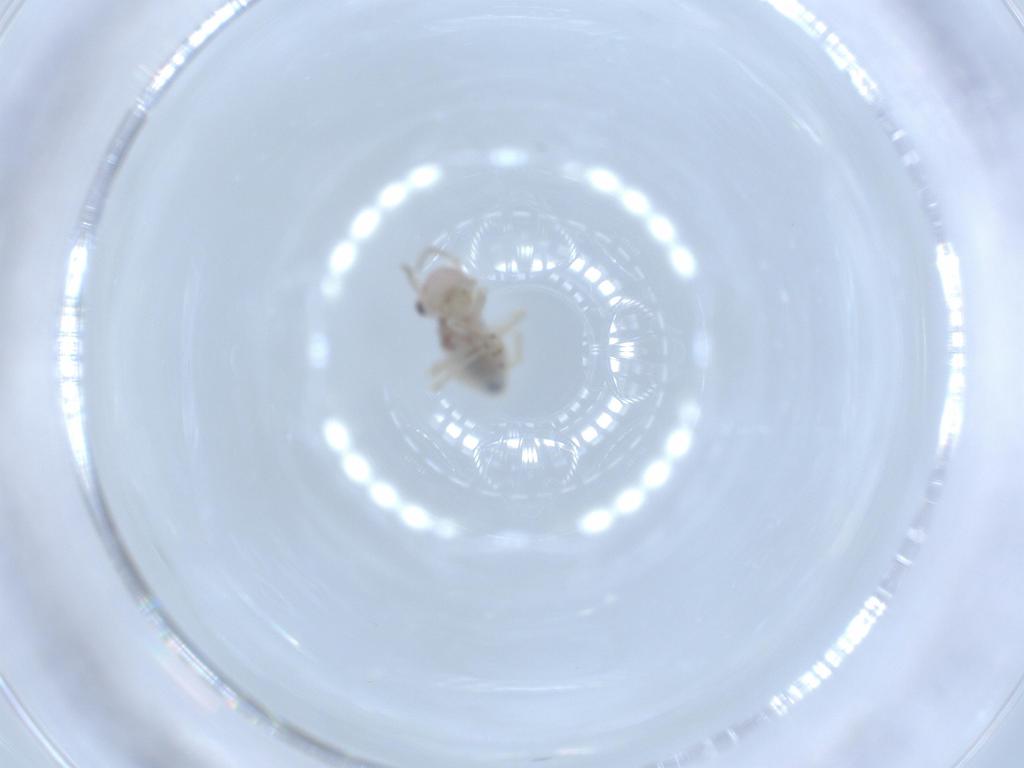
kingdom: Animalia
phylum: Arthropoda
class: Insecta
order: Psocodea
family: Amphipsocidae
